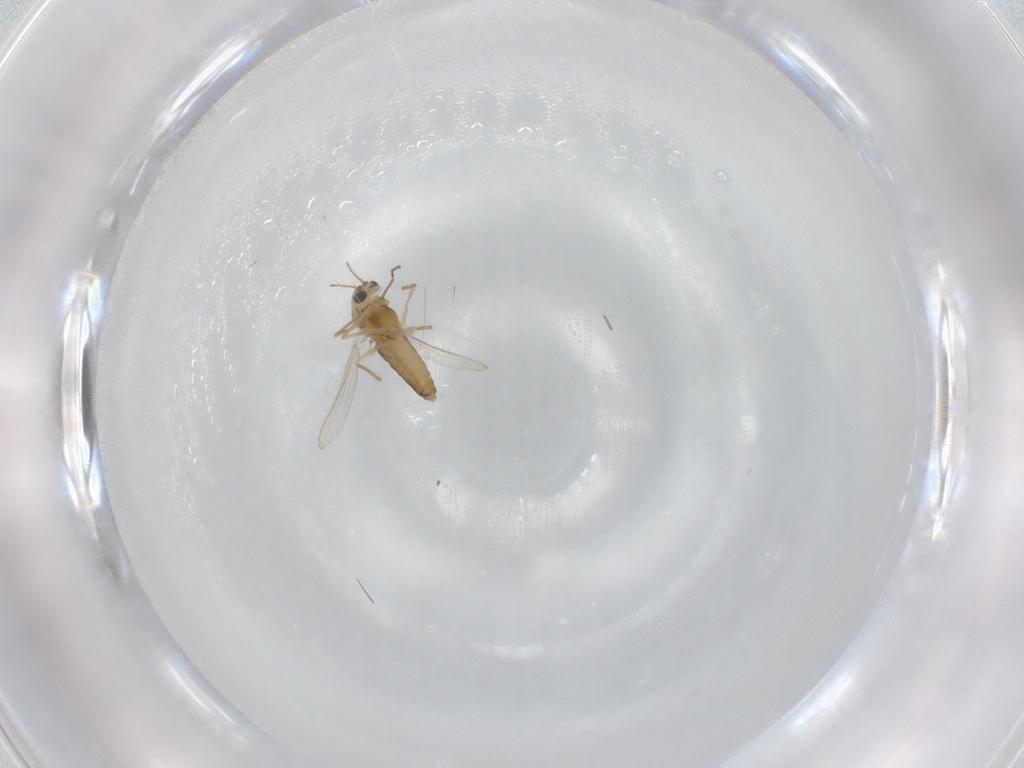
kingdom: Animalia
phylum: Arthropoda
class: Insecta
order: Diptera
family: Chironomidae
